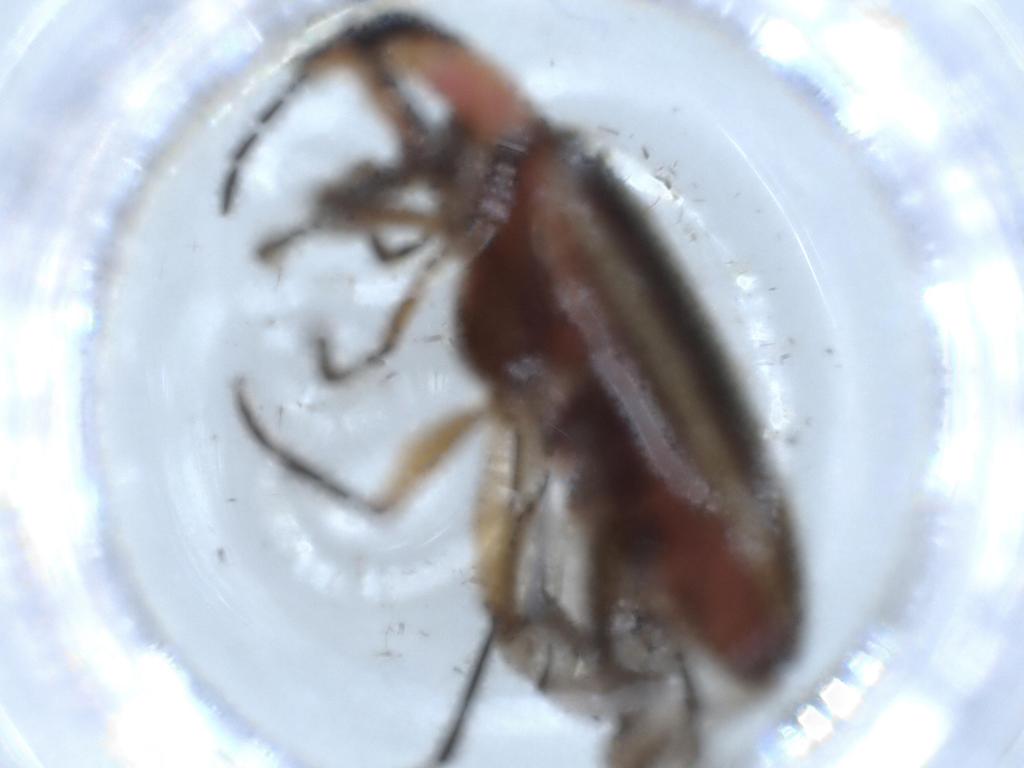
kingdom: Animalia
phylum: Arthropoda
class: Insecta
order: Coleoptera
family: Cleridae
